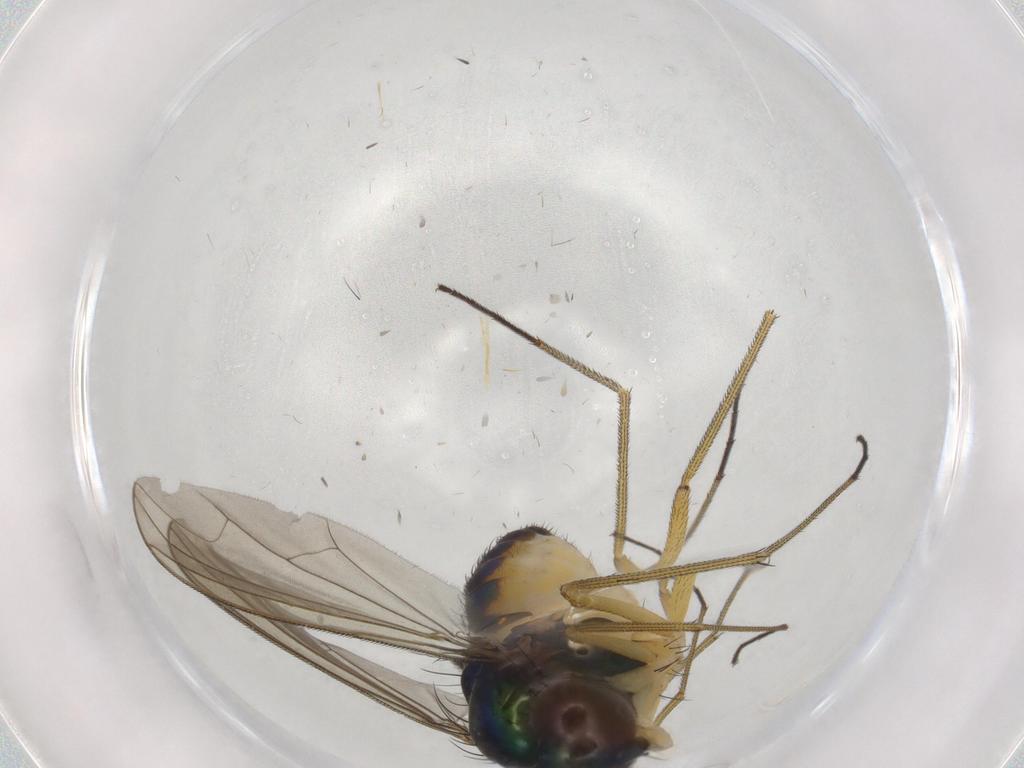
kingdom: Animalia
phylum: Arthropoda
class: Insecta
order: Diptera
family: Dolichopodidae
